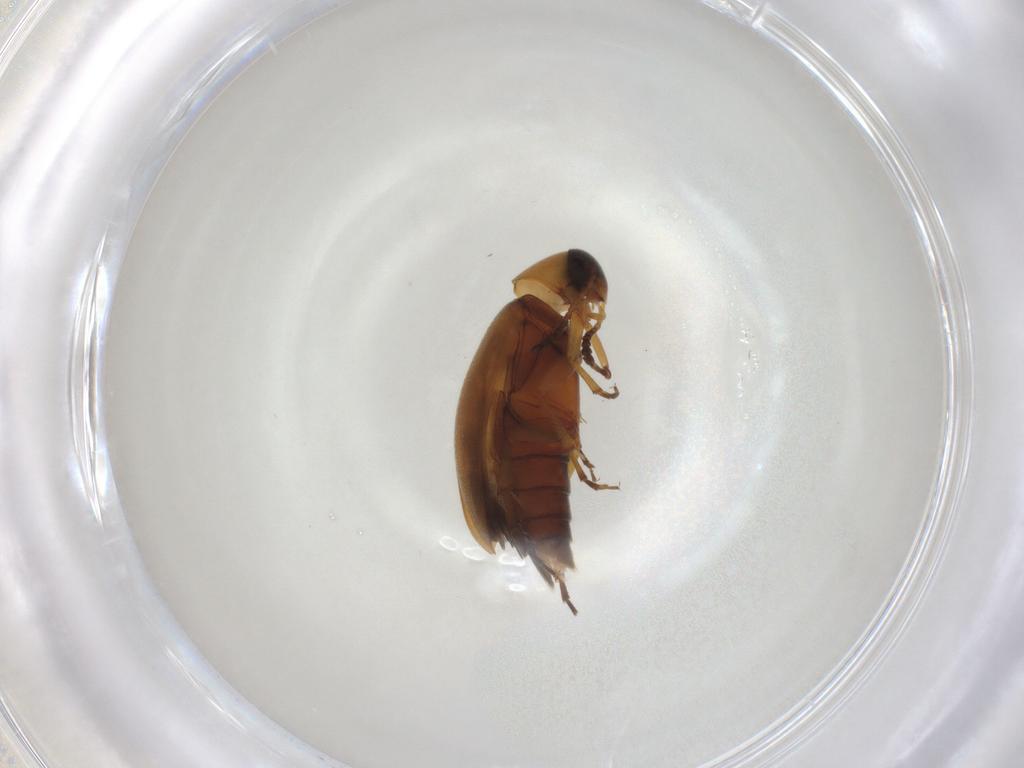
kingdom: Animalia
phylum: Arthropoda
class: Insecta
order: Coleoptera
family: Scraptiidae
